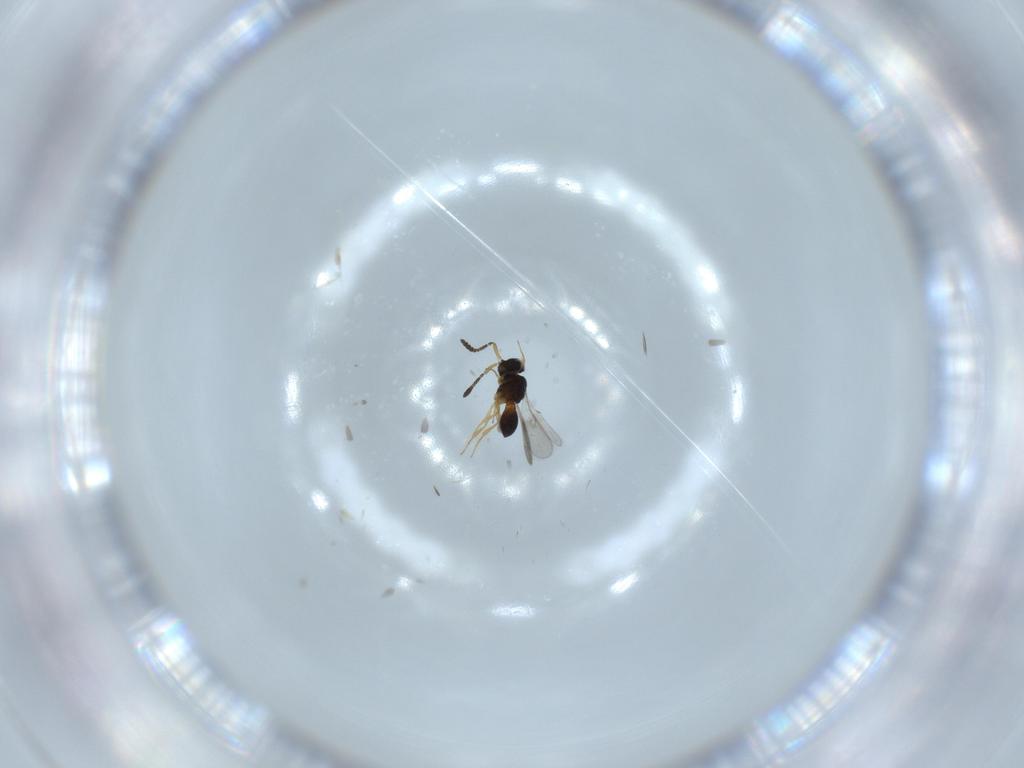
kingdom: Animalia
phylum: Arthropoda
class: Insecta
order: Hymenoptera
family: Scelionidae
